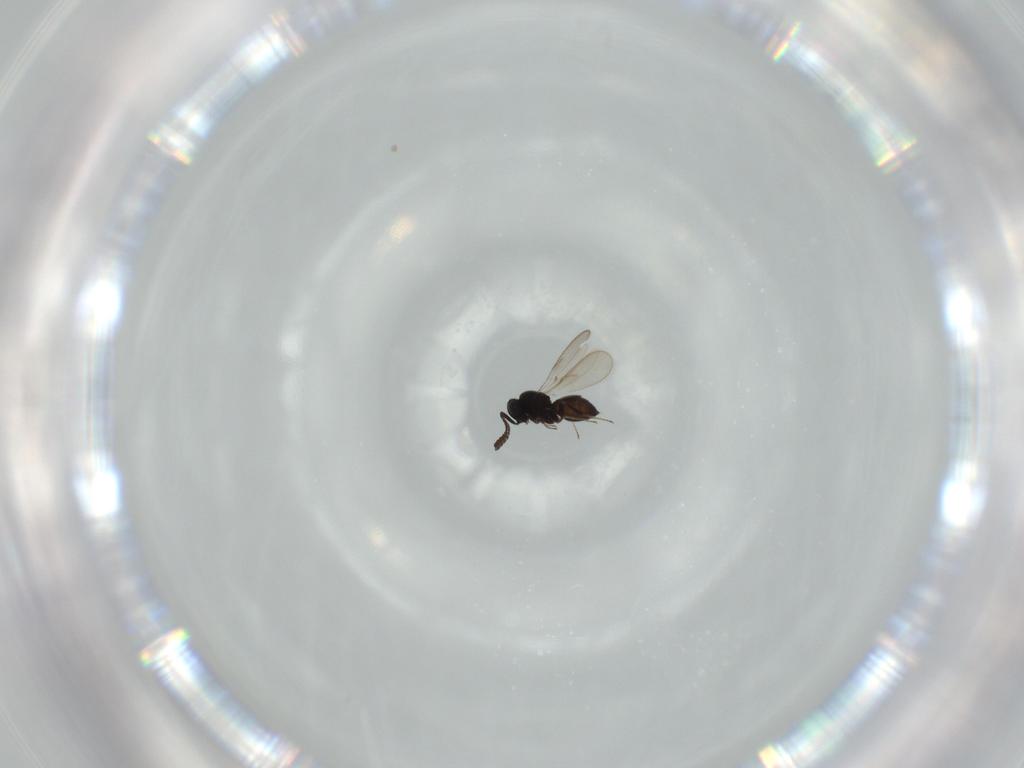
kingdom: Animalia
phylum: Arthropoda
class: Insecta
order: Hymenoptera
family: Scelionidae
